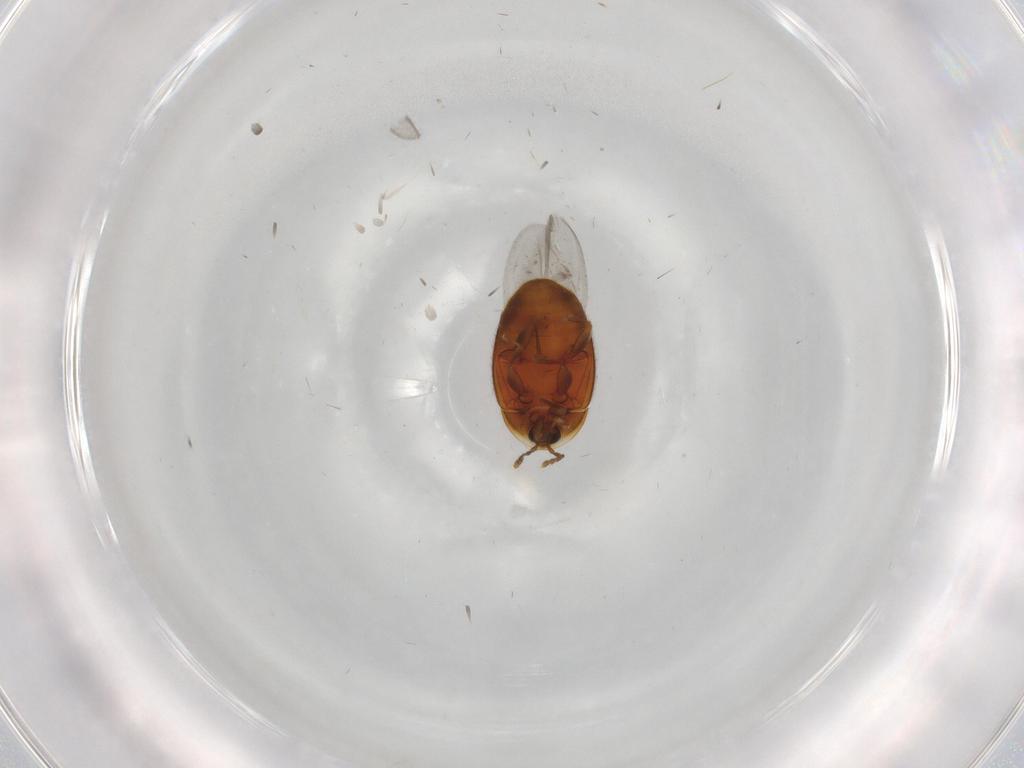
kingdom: Animalia
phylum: Arthropoda
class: Insecta
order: Coleoptera
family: Corylophidae
